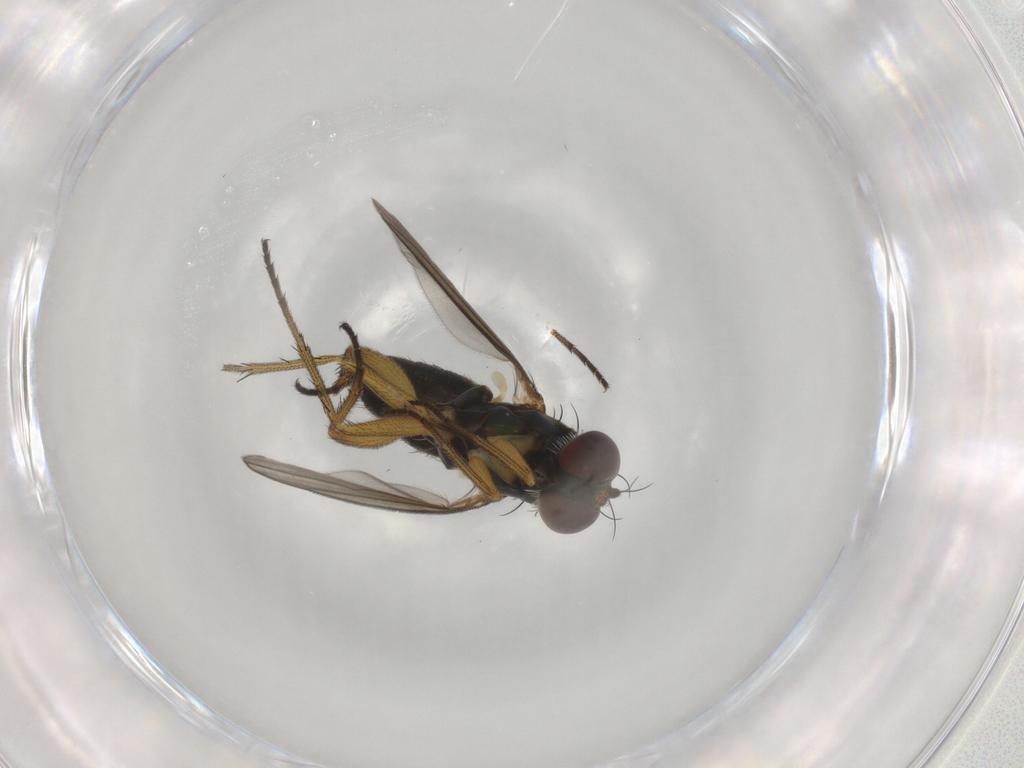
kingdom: Animalia
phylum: Arthropoda
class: Insecta
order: Diptera
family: Dolichopodidae
